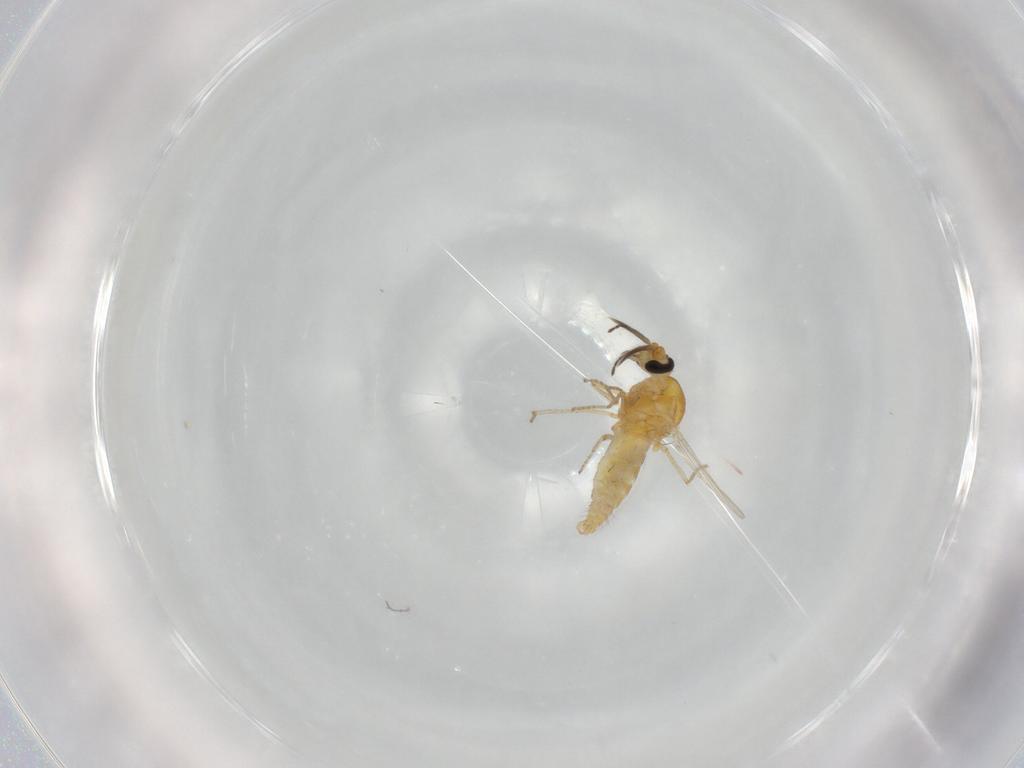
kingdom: Animalia
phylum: Arthropoda
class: Insecta
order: Diptera
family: Ceratopogonidae
